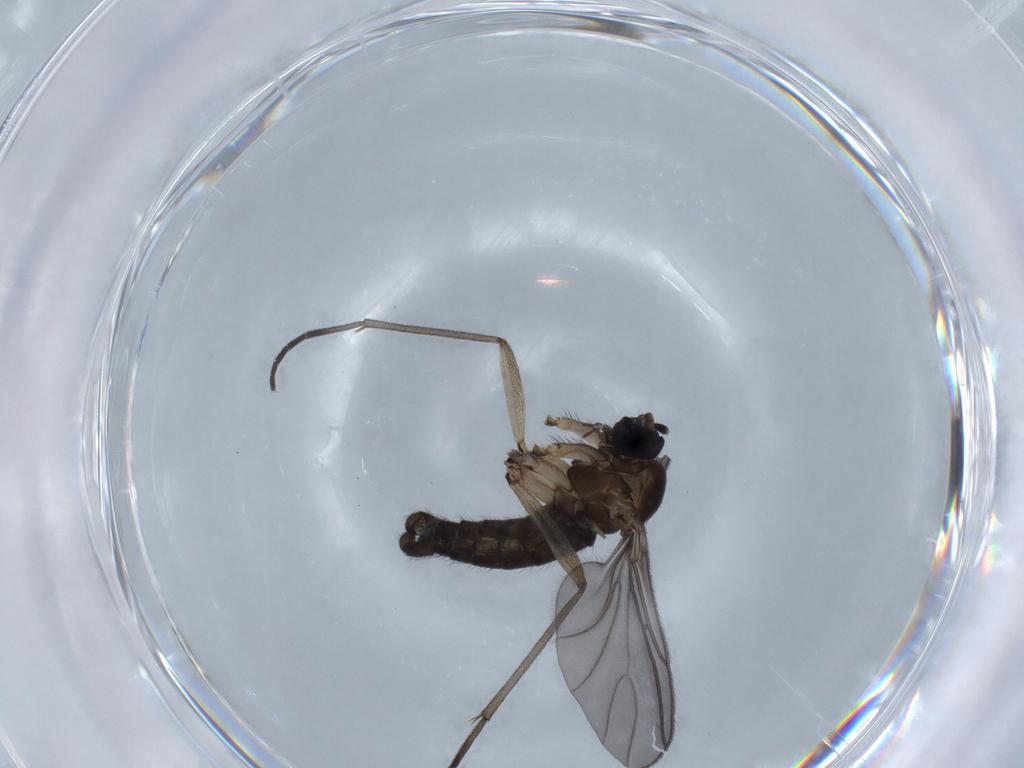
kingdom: Animalia
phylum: Arthropoda
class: Insecta
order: Diptera
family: Sciaridae
